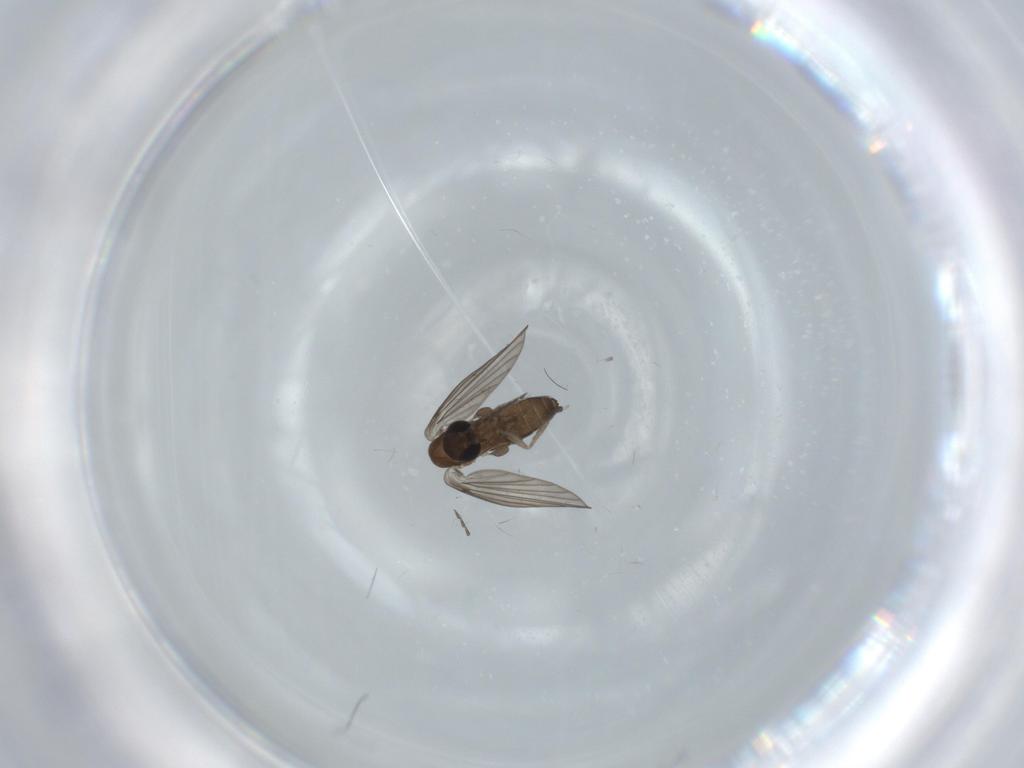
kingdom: Animalia
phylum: Arthropoda
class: Insecta
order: Diptera
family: Psychodidae
